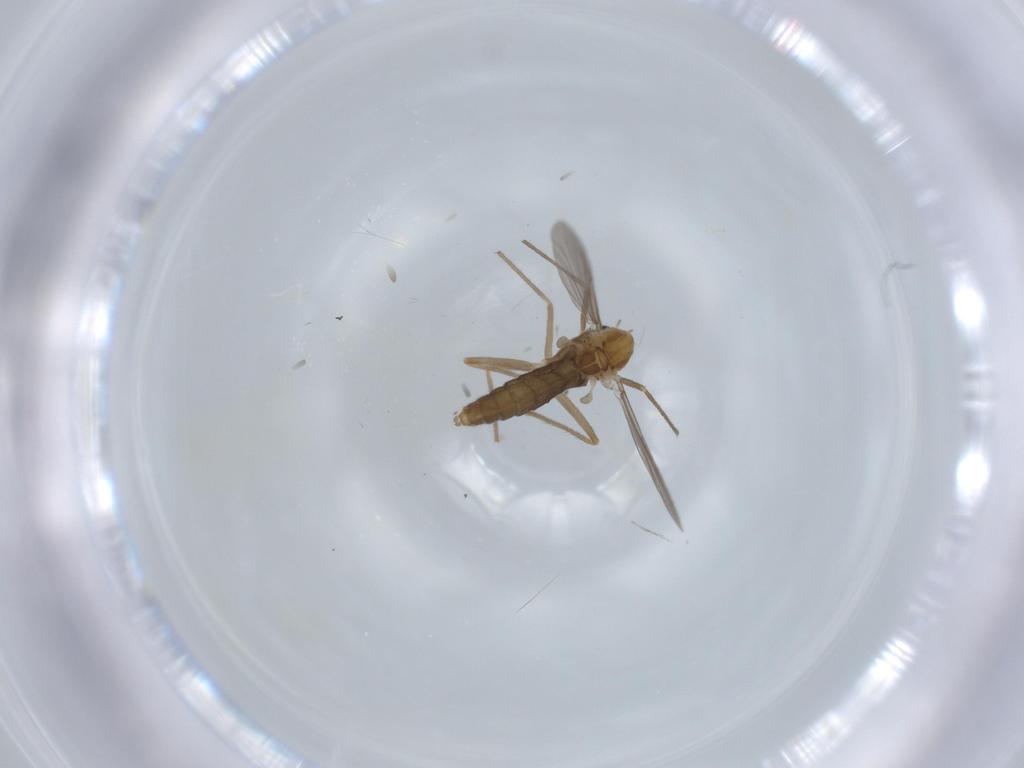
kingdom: Animalia
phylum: Arthropoda
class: Insecta
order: Diptera
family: Chironomidae
